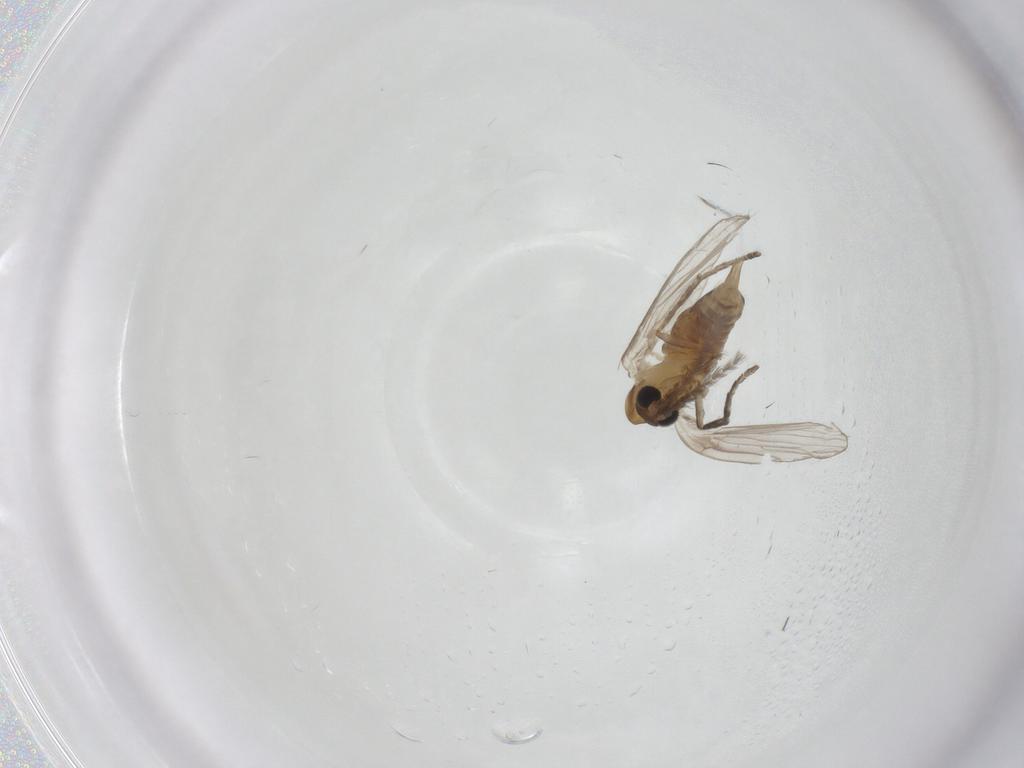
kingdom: Animalia
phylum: Arthropoda
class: Insecta
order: Diptera
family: Psychodidae
